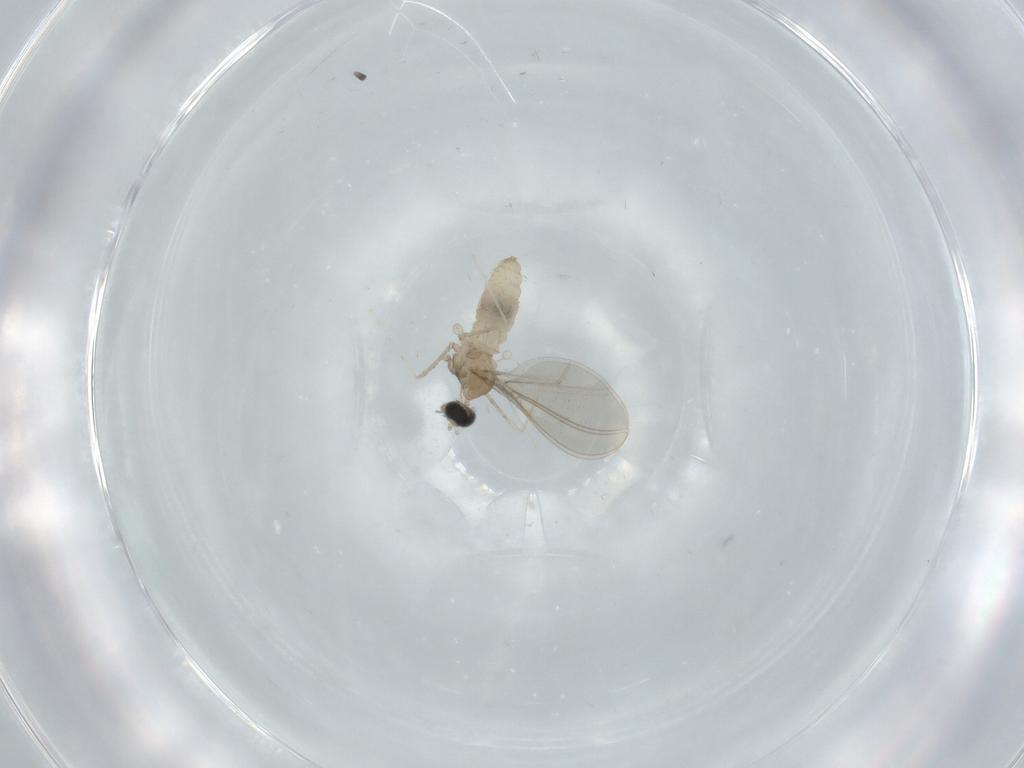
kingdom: Animalia
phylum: Arthropoda
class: Insecta
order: Diptera
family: Cecidomyiidae
